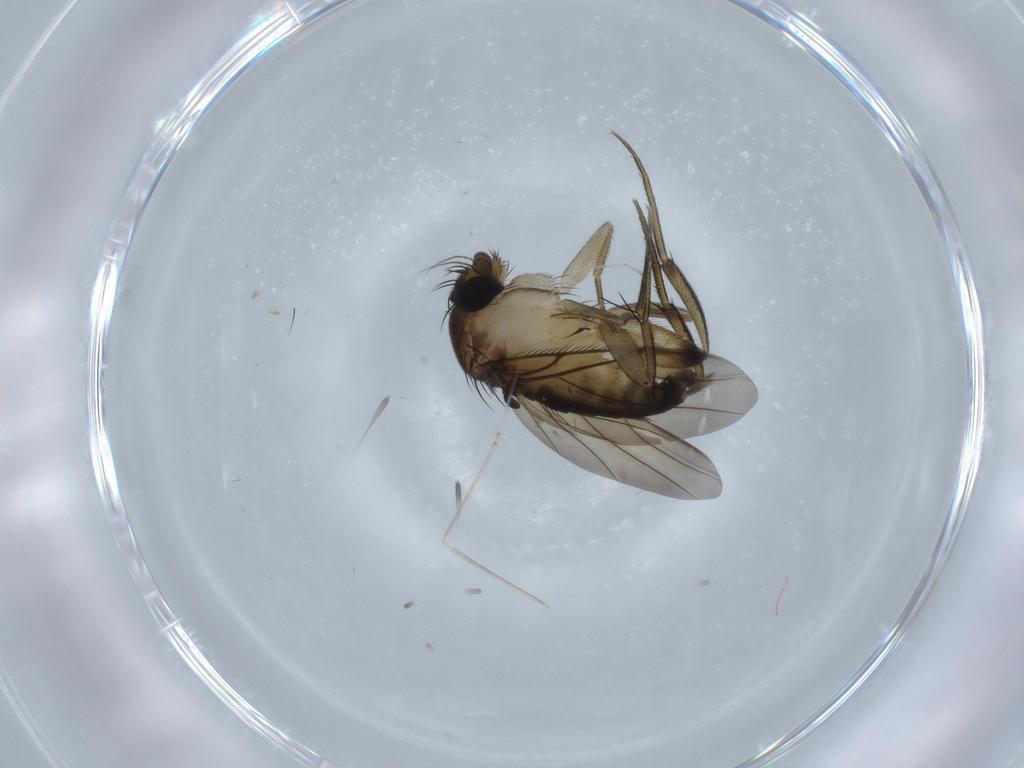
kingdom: Animalia
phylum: Arthropoda
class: Insecta
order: Diptera
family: Cecidomyiidae
